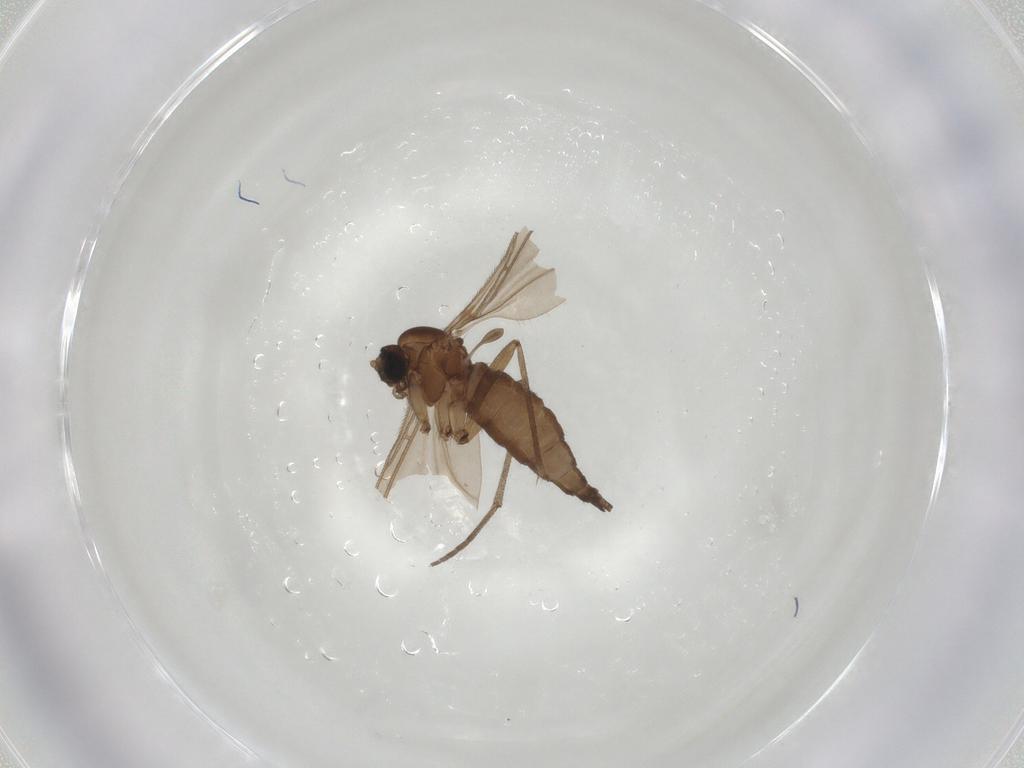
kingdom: Animalia
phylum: Arthropoda
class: Insecta
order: Diptera
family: Sciaridae
